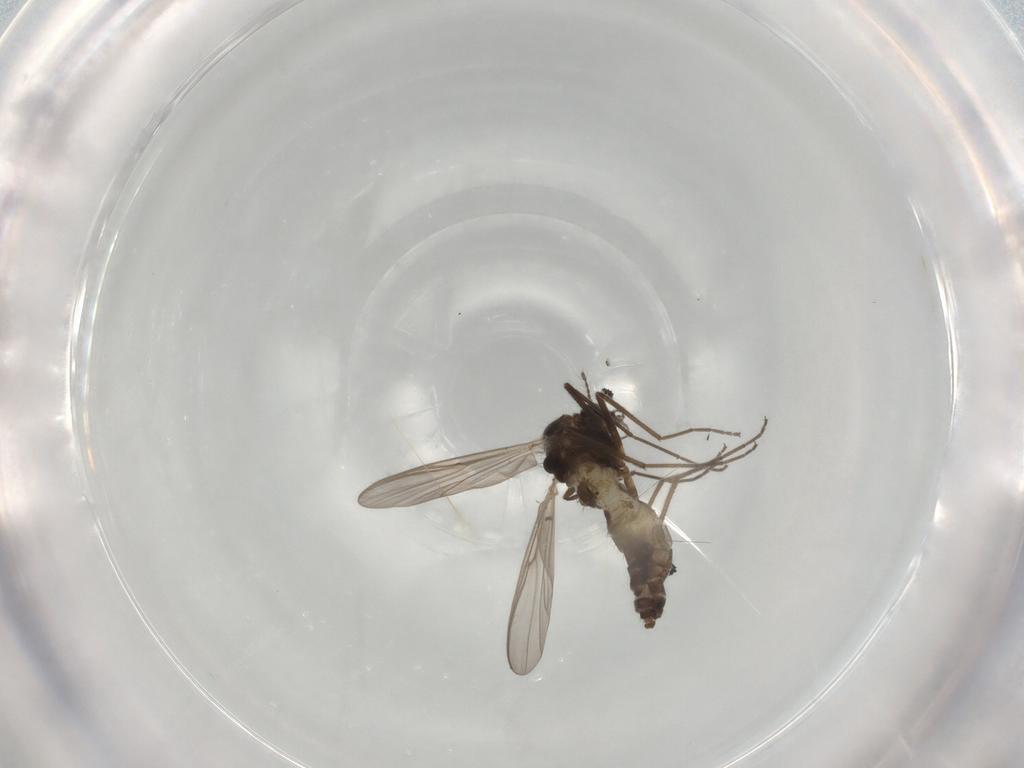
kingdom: Animalia
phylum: Arthropoda
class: Insecta
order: Diptera
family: Chironomidae
